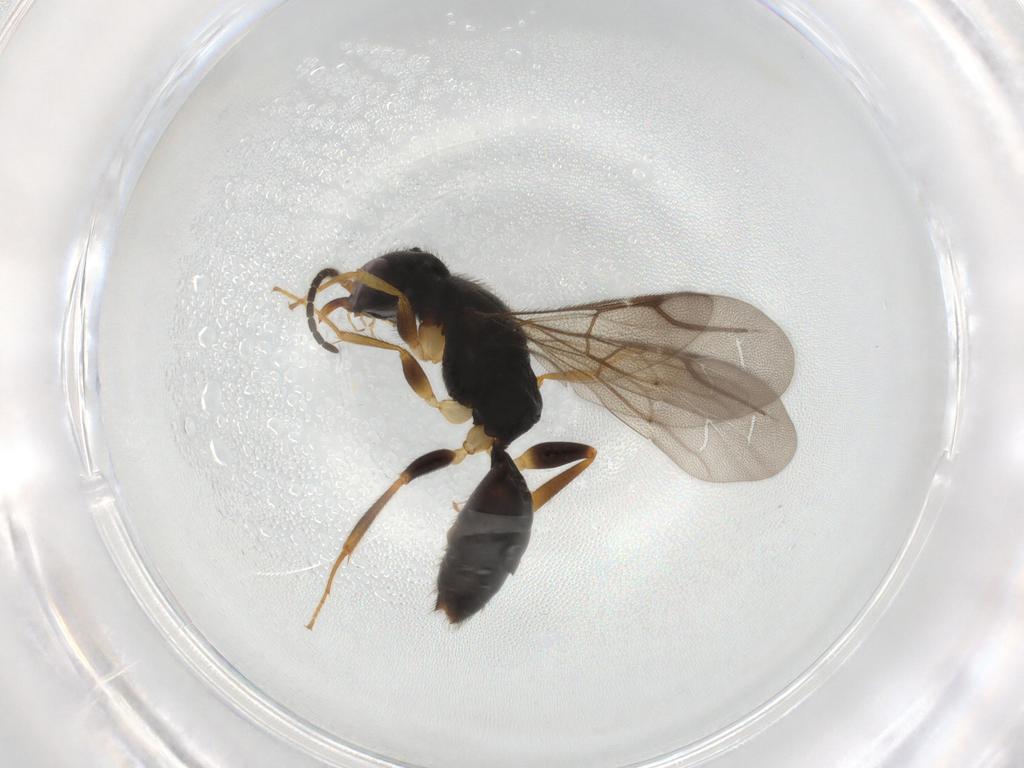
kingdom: Animalia
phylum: Arthropoda
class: Insecta
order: Hymenoptera
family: Bethylidae
